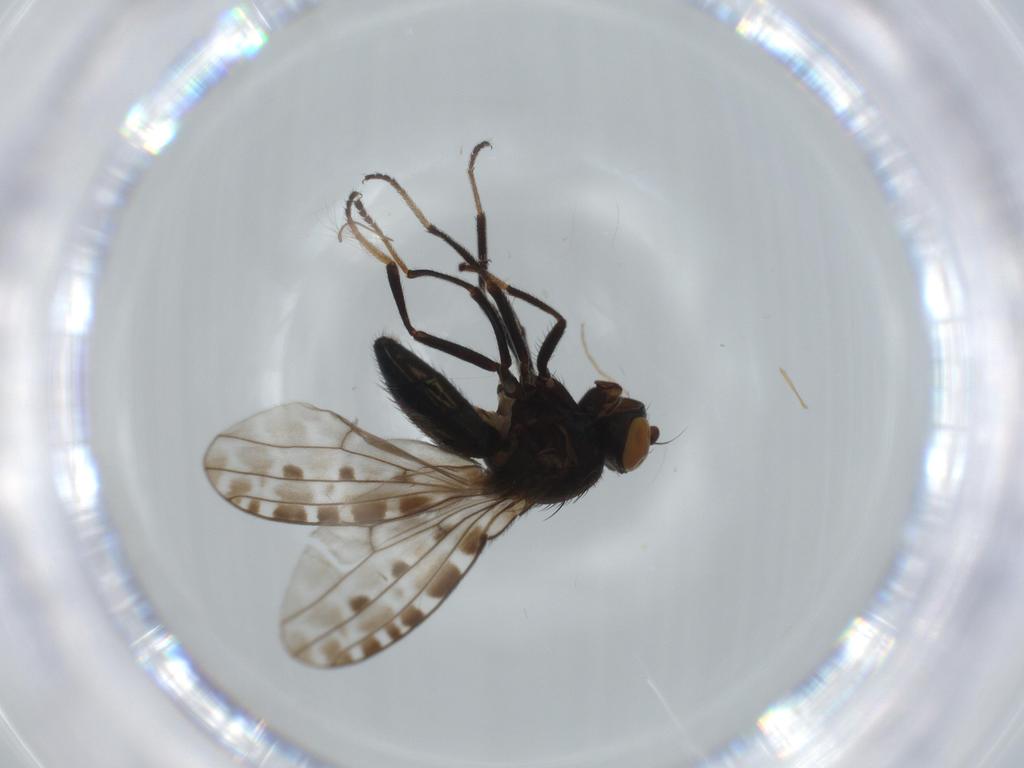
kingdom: Animalia
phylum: Arthropoda
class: Insecta
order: Diptera
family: Ephydridae
